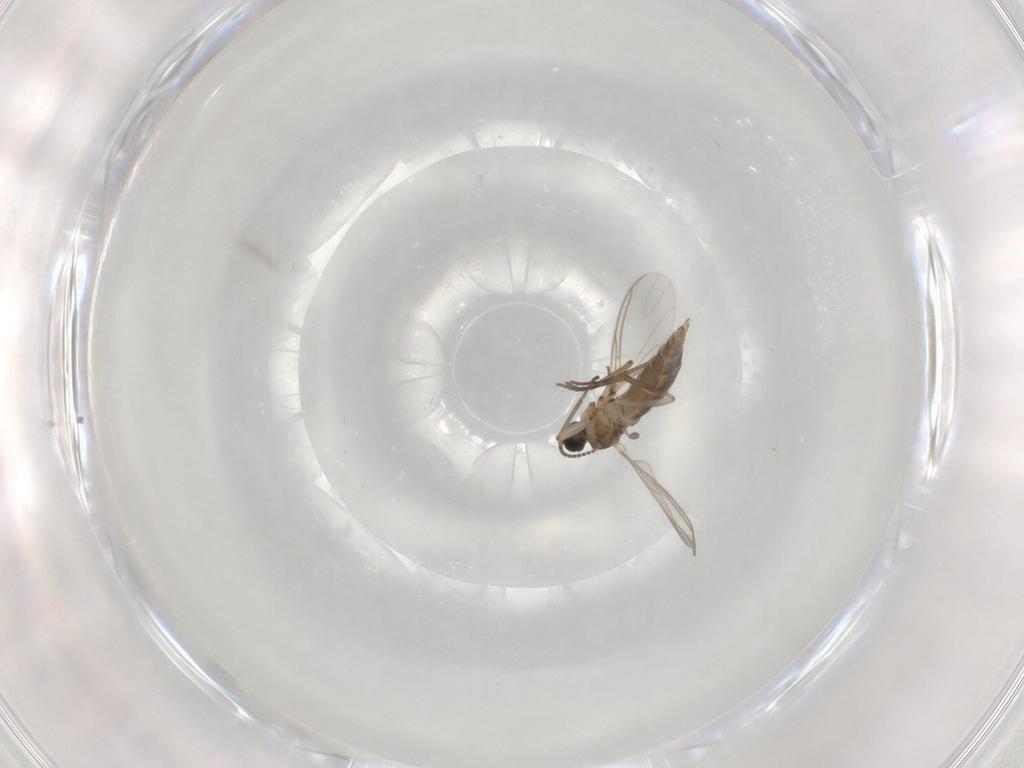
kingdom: Animalia
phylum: Arthropoda
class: Insecta
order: Diptera
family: Sciaridae
